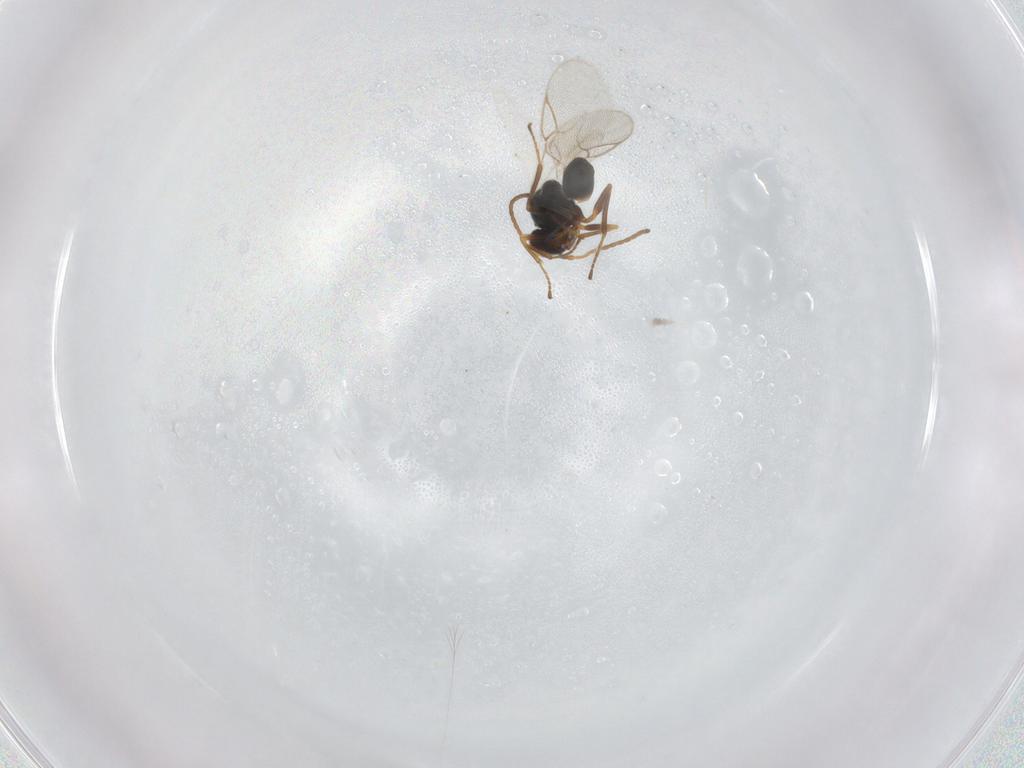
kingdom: Animalia
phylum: Arthropoda
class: Insecta
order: Hymenoptera
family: Figitidae
